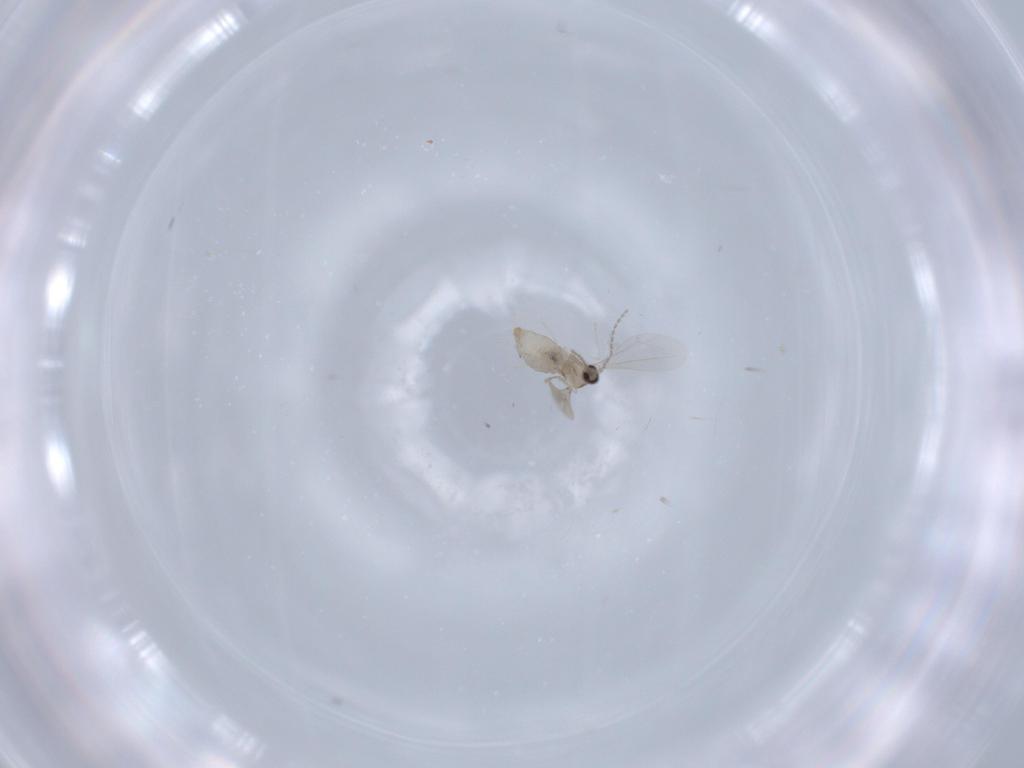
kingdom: Animalia
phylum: Arthropoda
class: Insecta
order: Diptera
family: Cecidomyiidae
